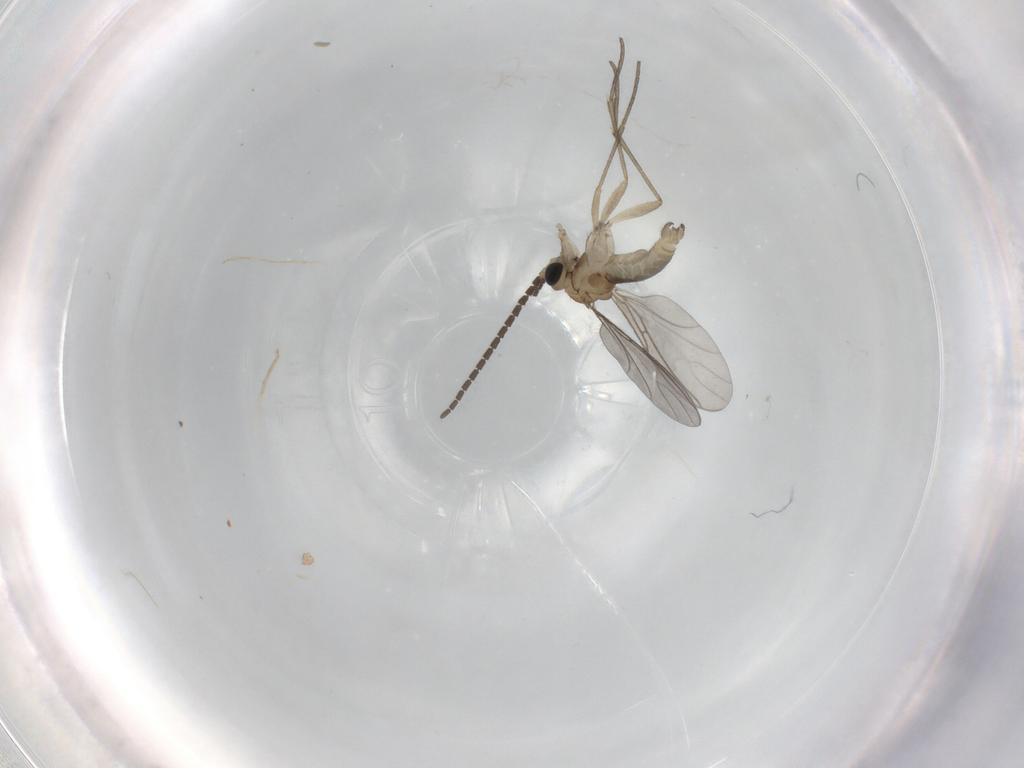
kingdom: Animalia
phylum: Arthropoda
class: Insecta
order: Diptera
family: Sciaridae
